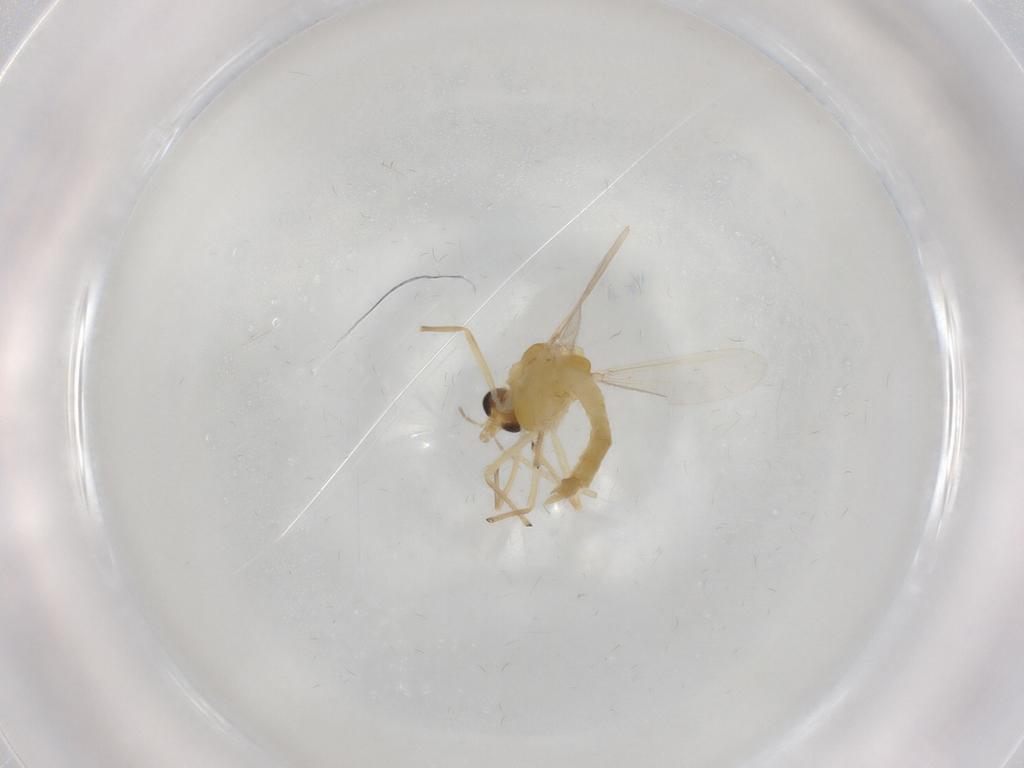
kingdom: Animalia
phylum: Arthropoda
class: Insecta
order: Diptera
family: Chironomidae
